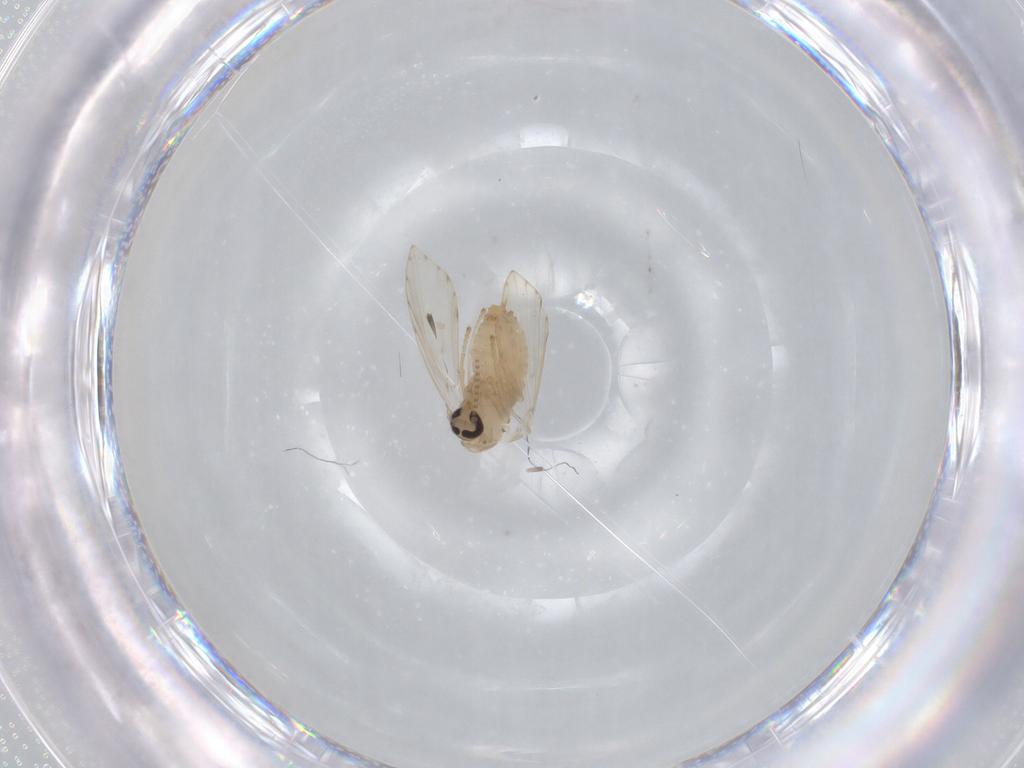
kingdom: Animalia
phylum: Arthropoda
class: Insecta
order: Diptera
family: Psychodidae
